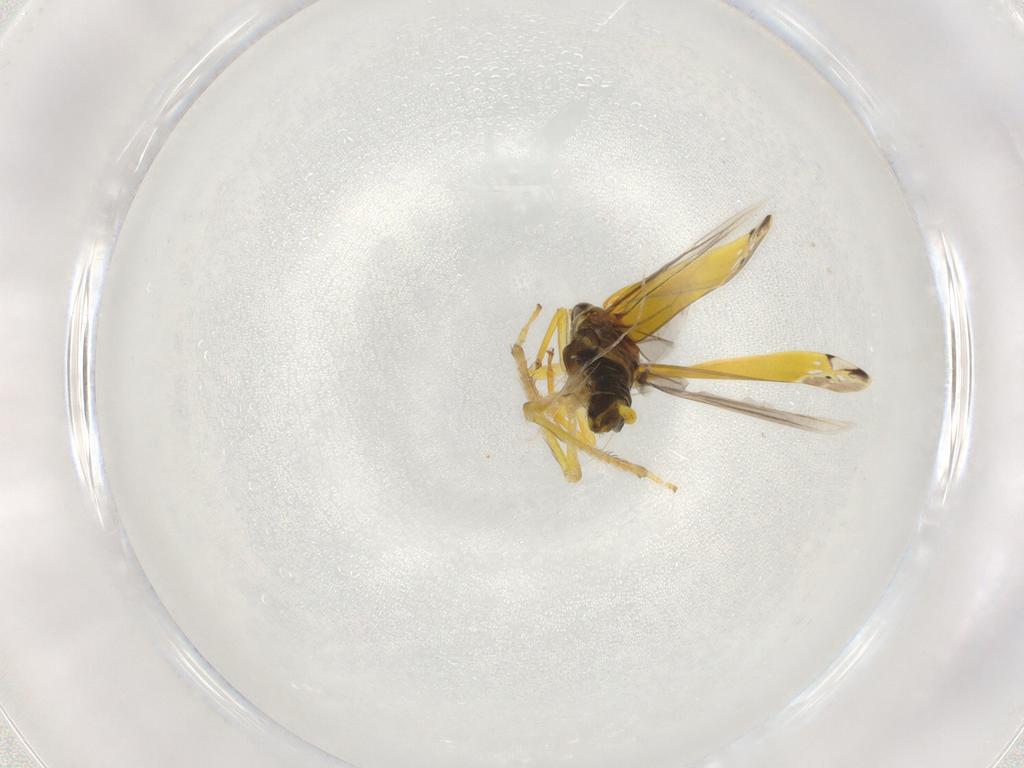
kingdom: Animalia
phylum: Arthropoda
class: Insecta
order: Hemiptera
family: Cicadellidae
